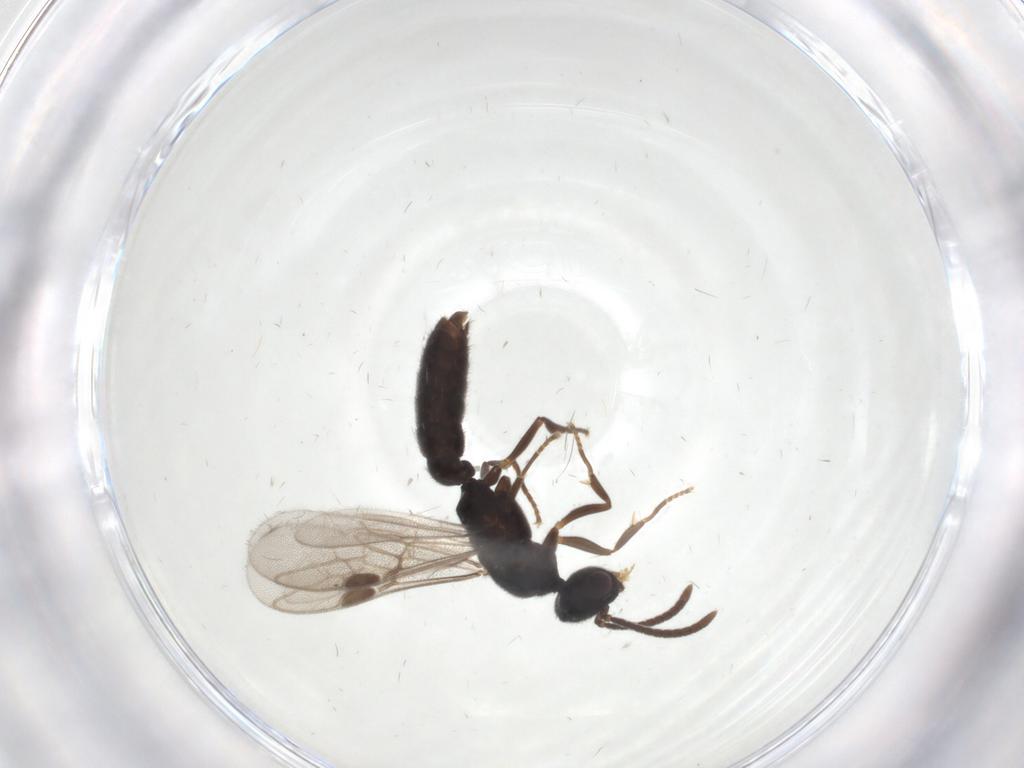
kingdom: Animalia
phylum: Arthropoda
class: Insecta
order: Hymenoptera
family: Formicidae
